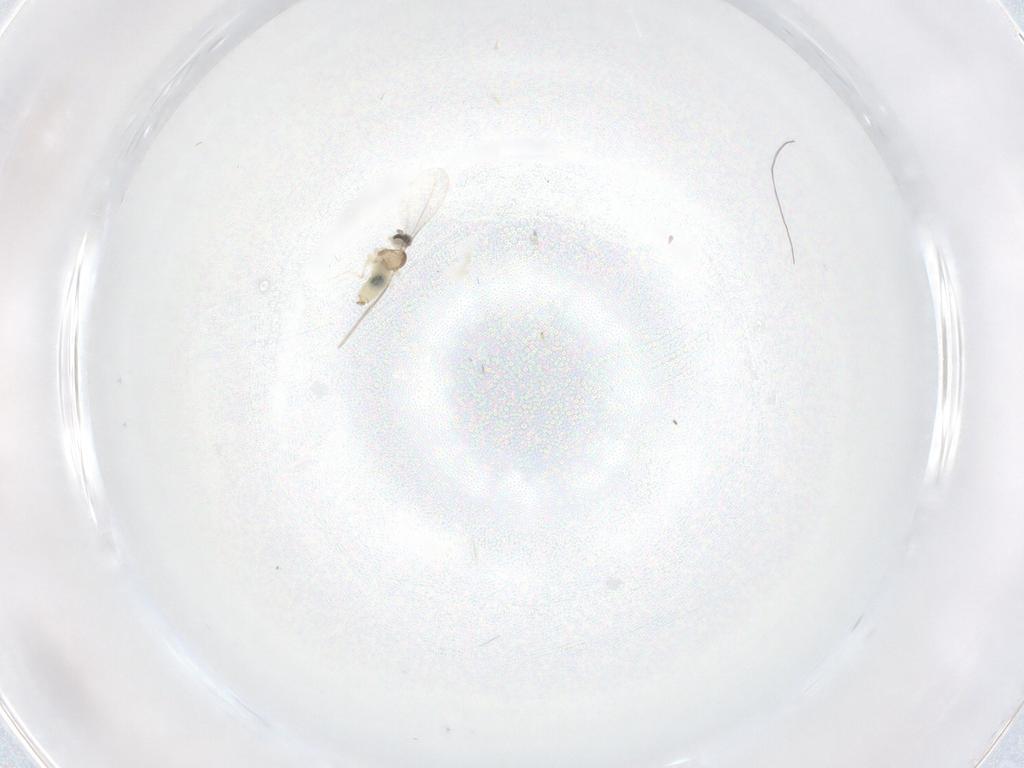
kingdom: Animalia
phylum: Arthropoda
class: Insecta
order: Diptera
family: Psychodidae
